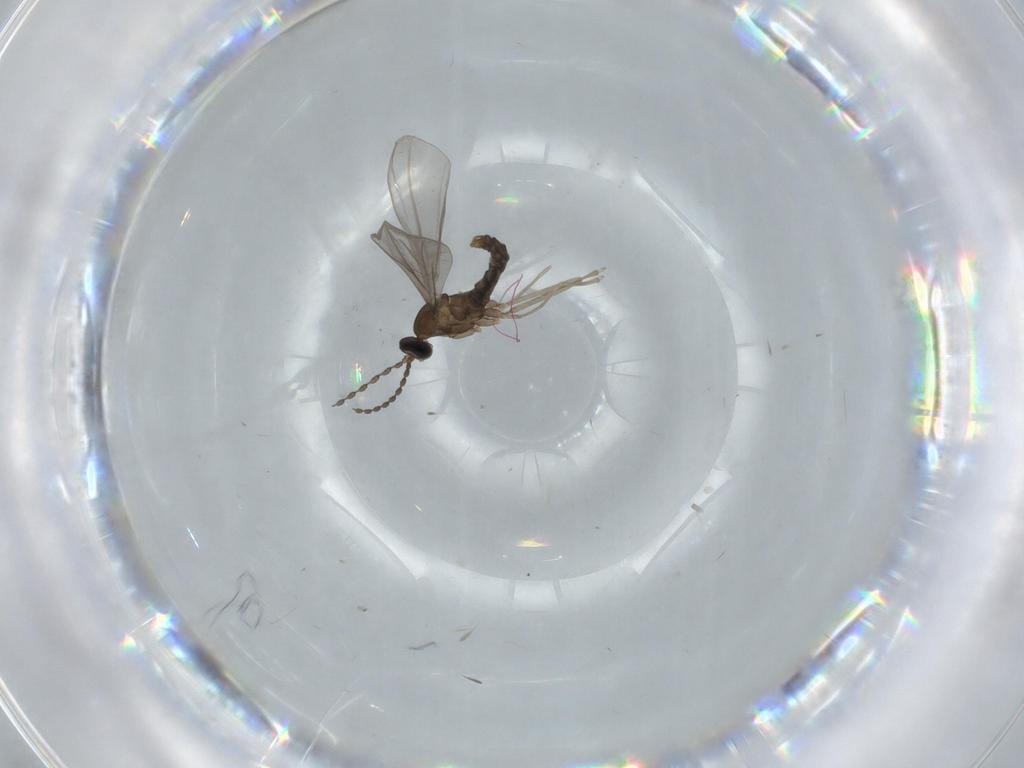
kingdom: Animalia
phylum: Arthropoda
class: Insecta
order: Diptera
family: Cecidomyiidae
